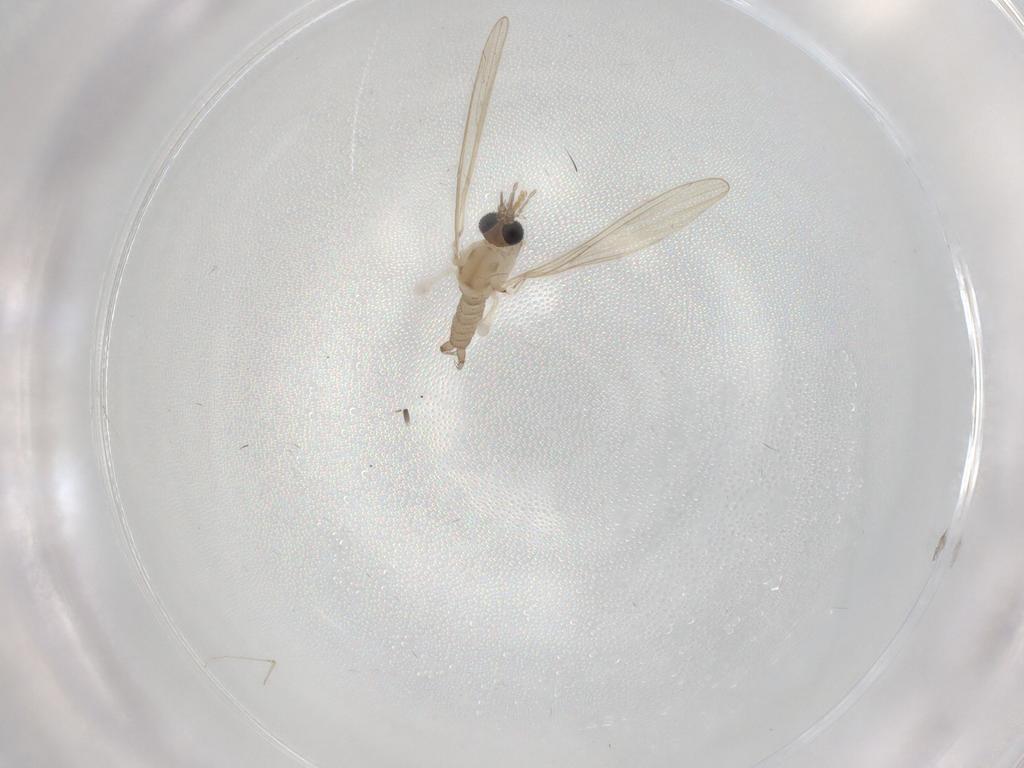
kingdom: Animalia
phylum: Arthropoda
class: Insecta
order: Diptera
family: Psychodidae
